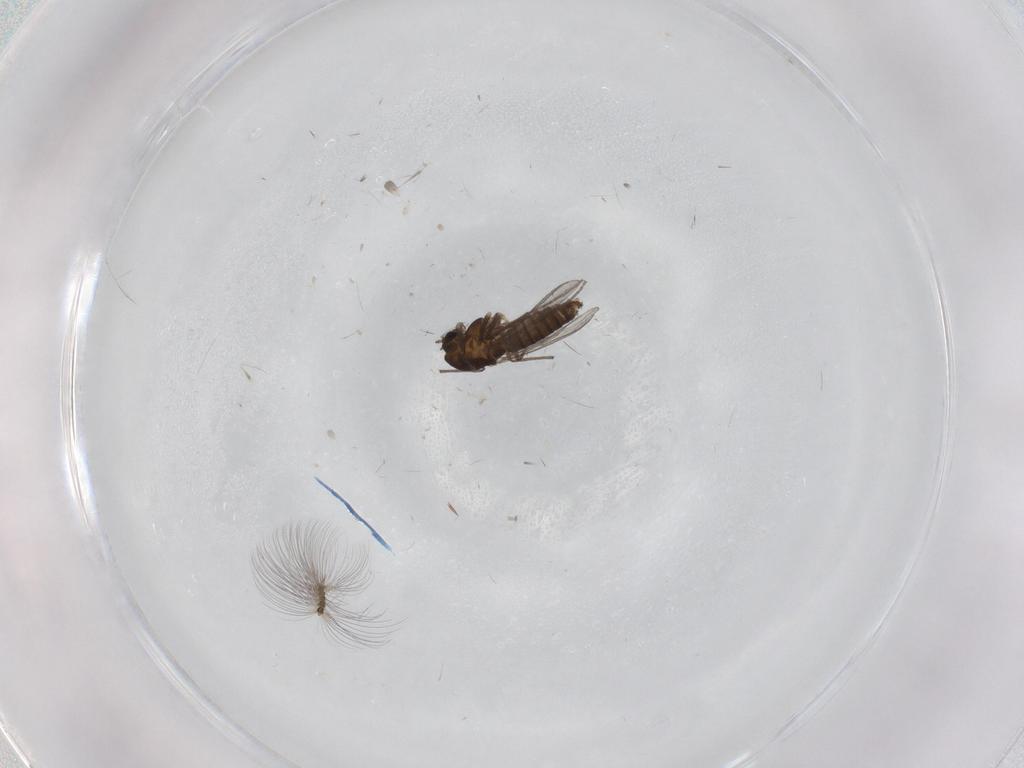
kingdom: Animalia
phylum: Arthropoda
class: Insecta
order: Diptera
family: Chironomidae
